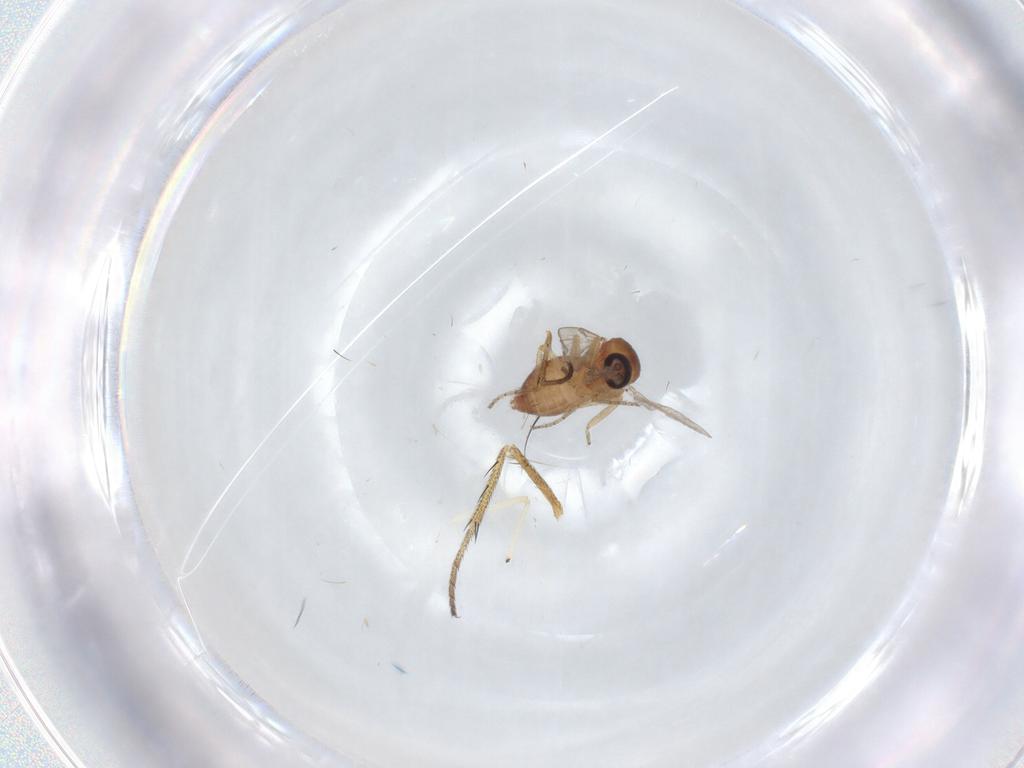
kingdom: Animalia
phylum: Arthropoda
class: Insecta
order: Diptera
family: Ceratopogonidae
